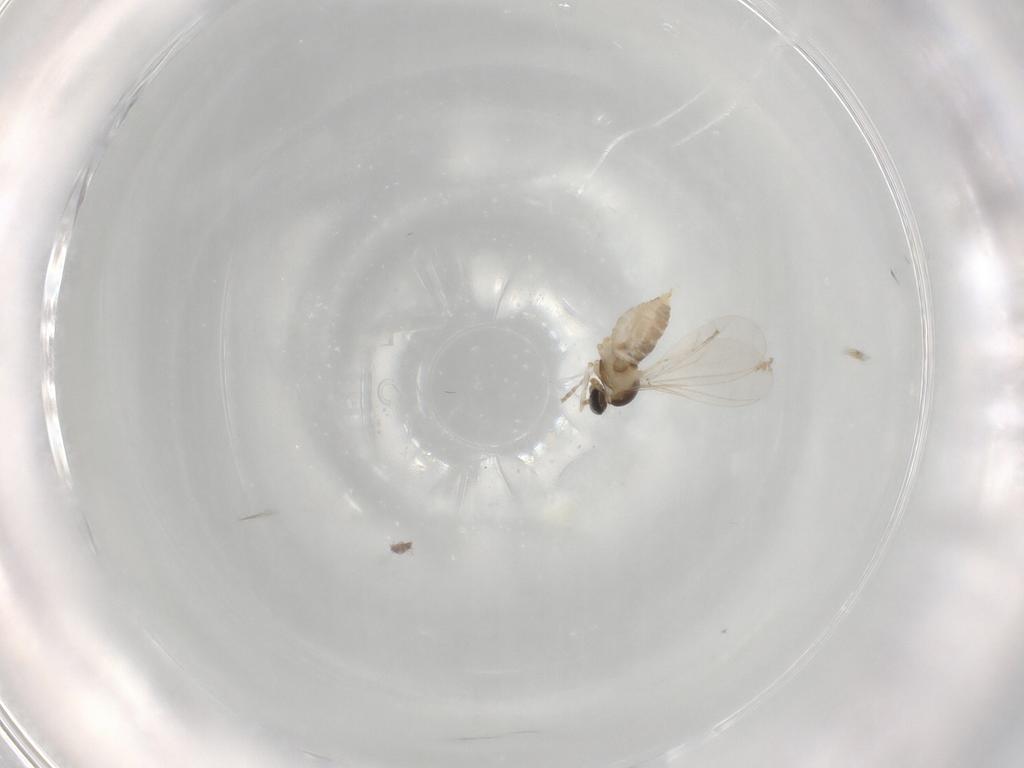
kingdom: Animalia
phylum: Arthropoda
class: Insecta
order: Diptera
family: Cecidomyiidae
